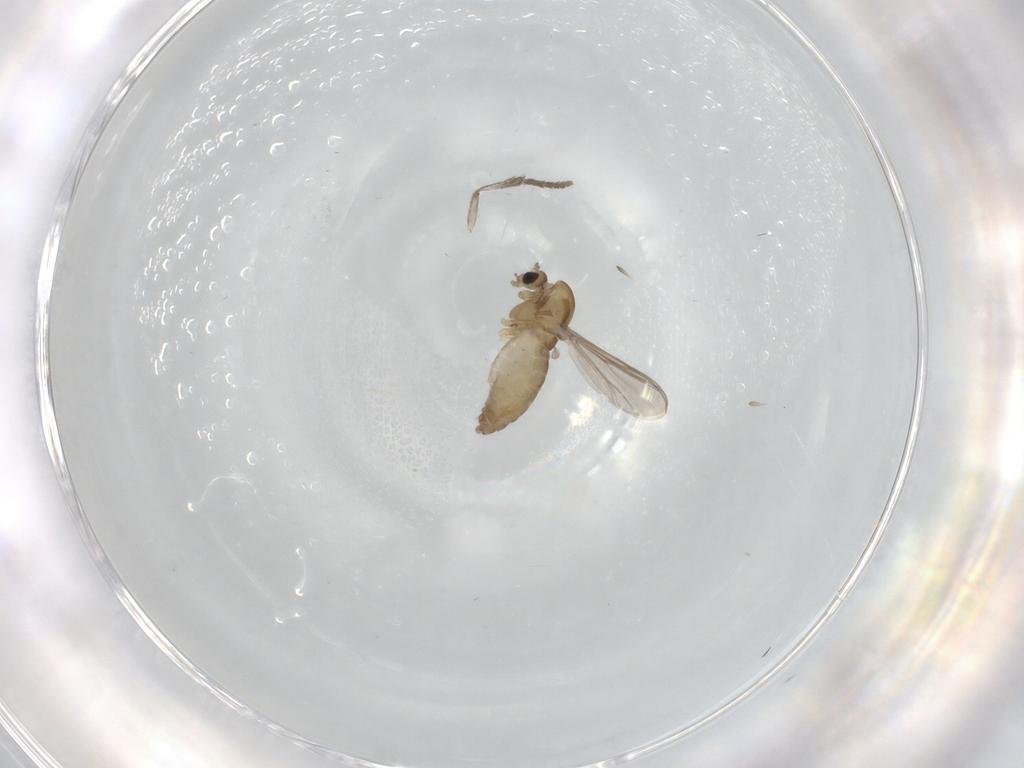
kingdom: Animalia
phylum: Arthropoda
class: Insecta
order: Diptera
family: Chironomidae
